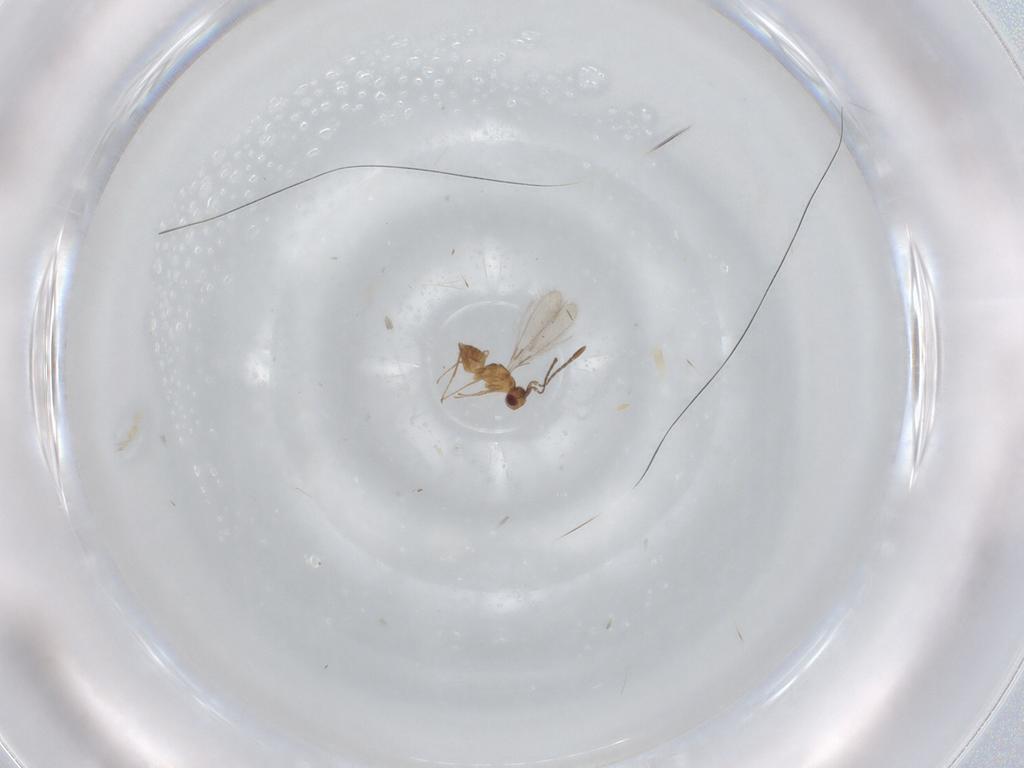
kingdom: Animalia
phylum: Arthropoda
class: Insecta
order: Hymenoptera
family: Mymaridae
